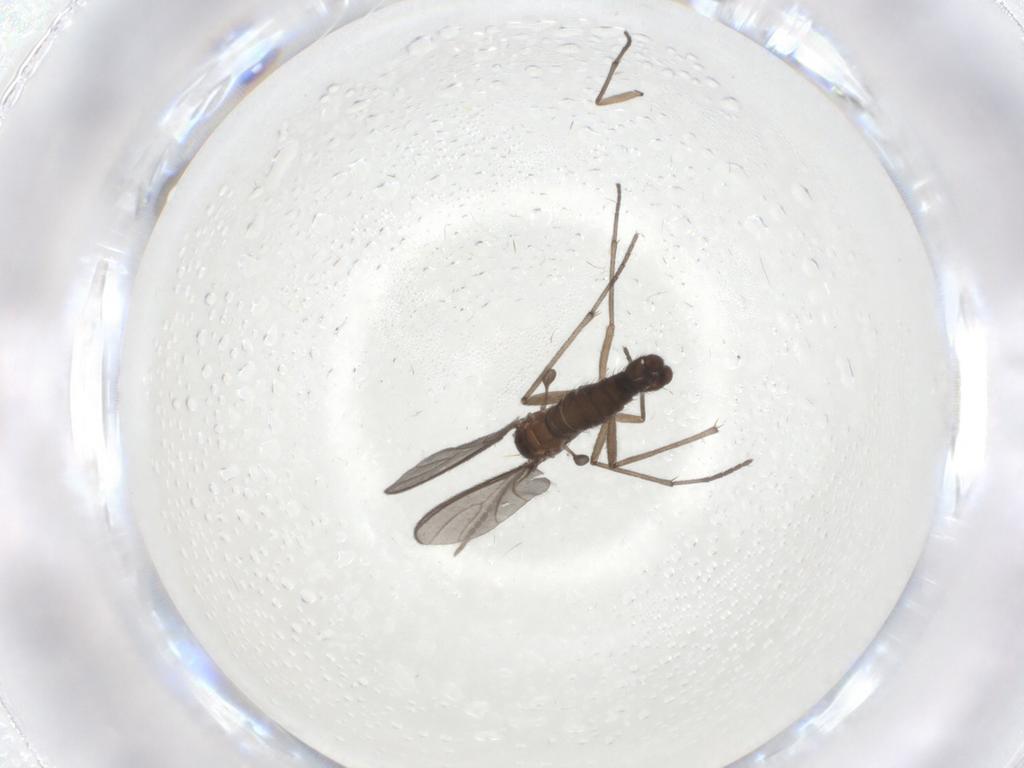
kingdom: Animalia
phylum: Arthropoda
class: Insecta
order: Diptera
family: Sciaridae
